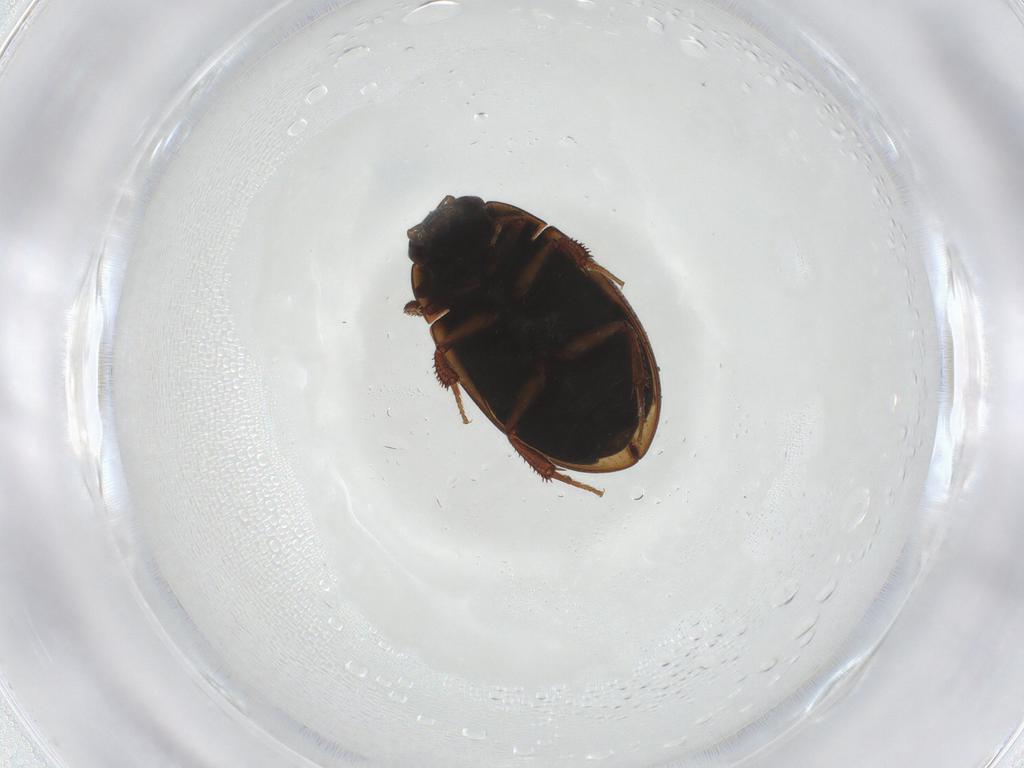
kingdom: Animalia
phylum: Arthropoda
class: Insecta
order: Coleoptera
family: Hydrophilidae
